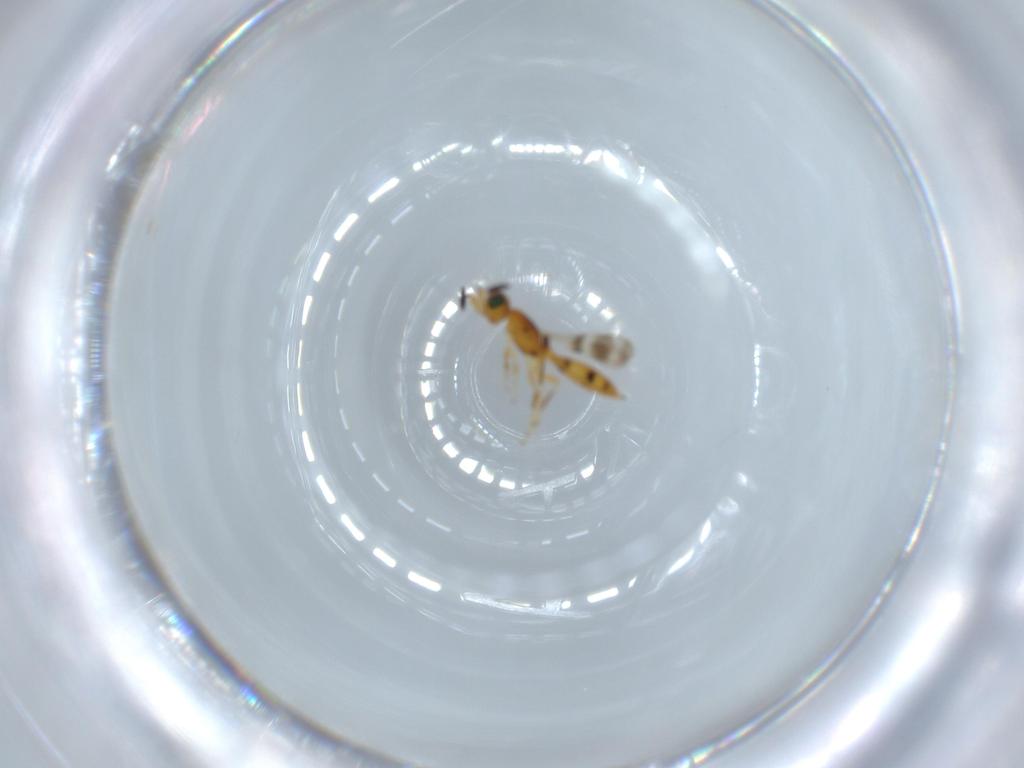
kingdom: Animalia
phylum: Arthropoda
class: Insecta
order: Hymenoptera
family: Scelionidae
